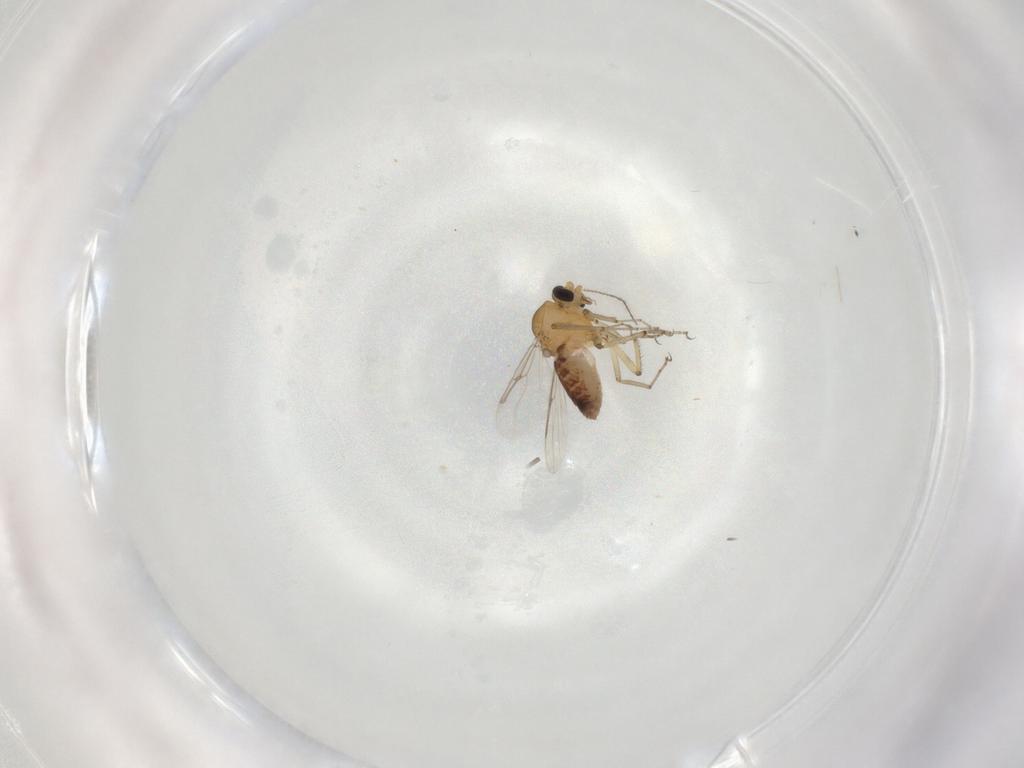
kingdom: Animalia
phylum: Arthropoda
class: Insecta
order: Diptera
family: Ceratopogonidae
